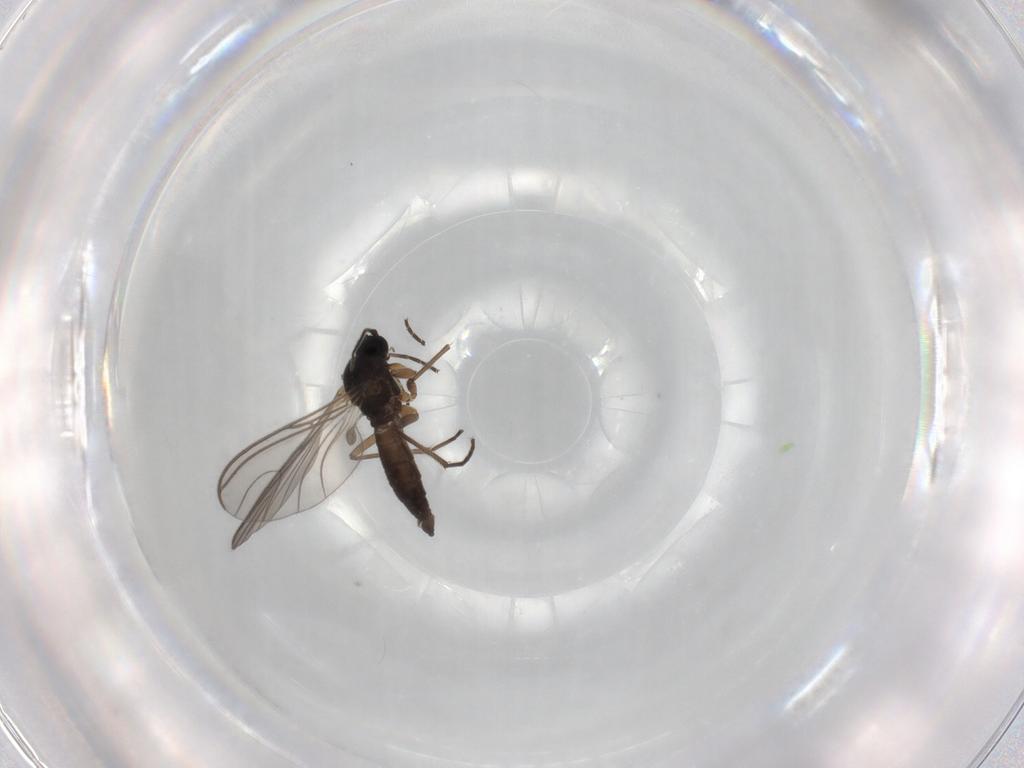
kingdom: Animalia
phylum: Arthropoda
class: Insecta
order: Diptera
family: Sciaridae
